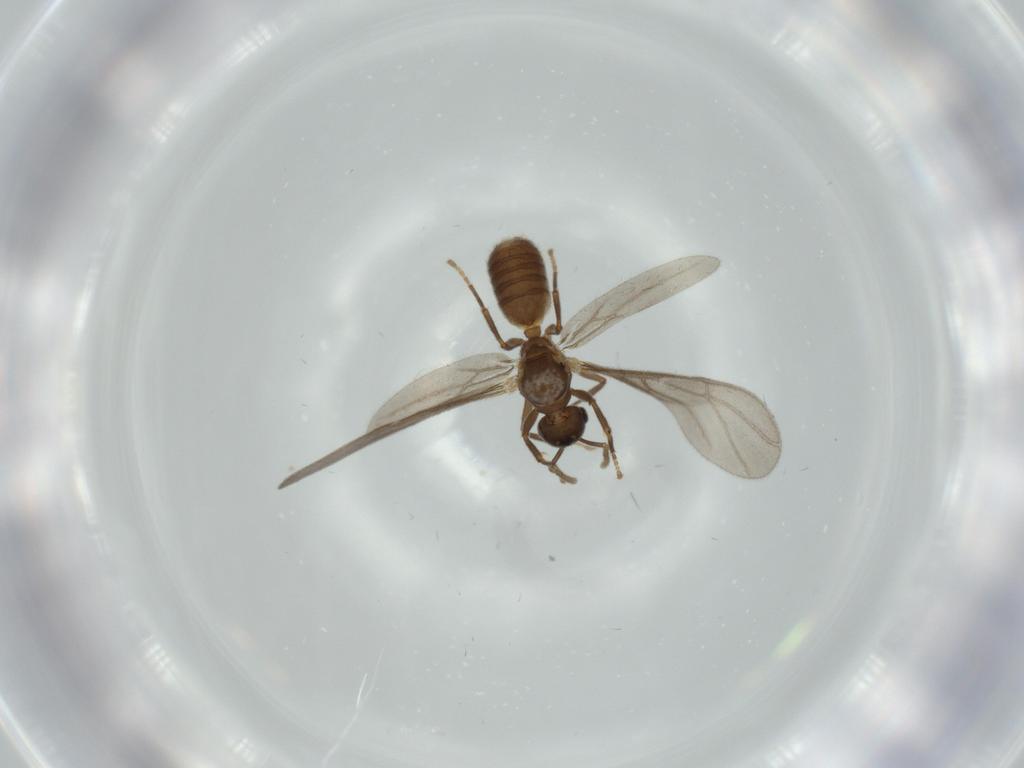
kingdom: Animalia
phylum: Arthropoda
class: Insecta
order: Hymenoptera
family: Formicidae
